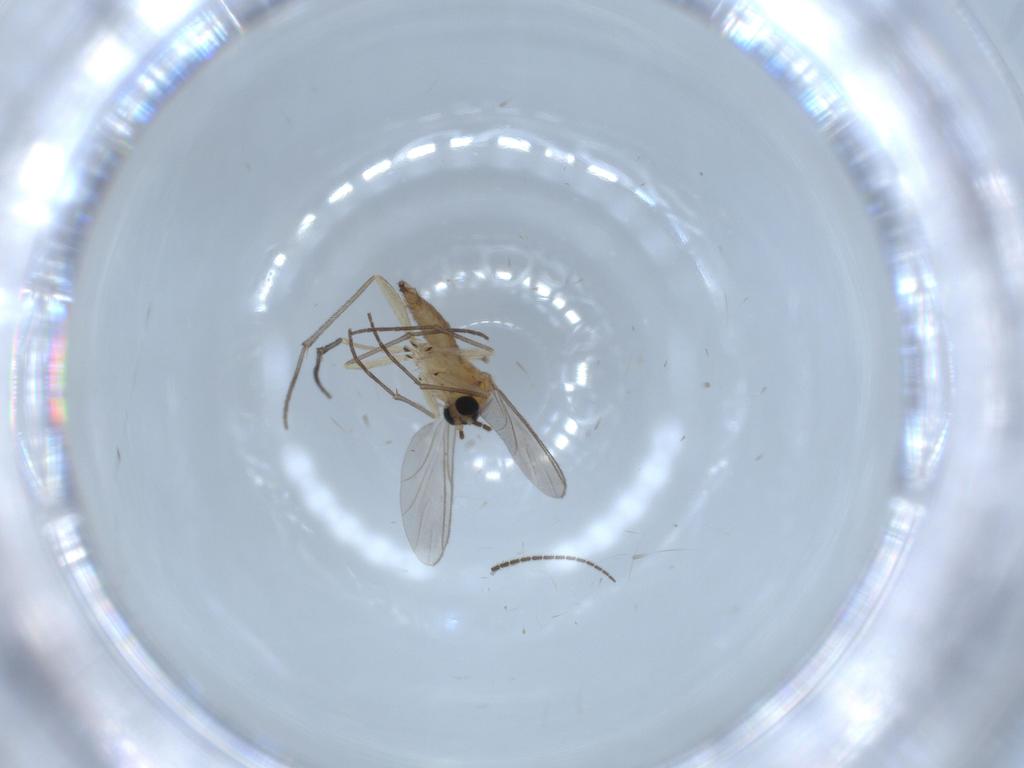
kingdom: Animalia
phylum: Arthropoda
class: Insecta
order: Diptera
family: Sciaridae
